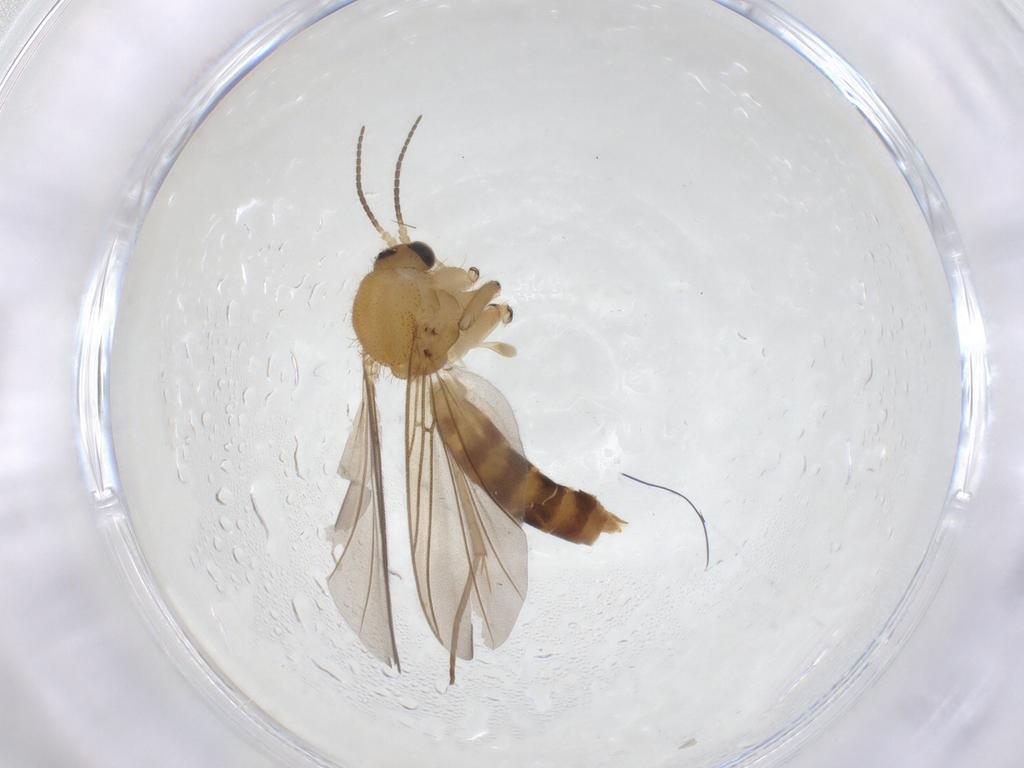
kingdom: Animalia
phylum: Arthropoda
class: Insecta
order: Diptera
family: Mycetophilidae
